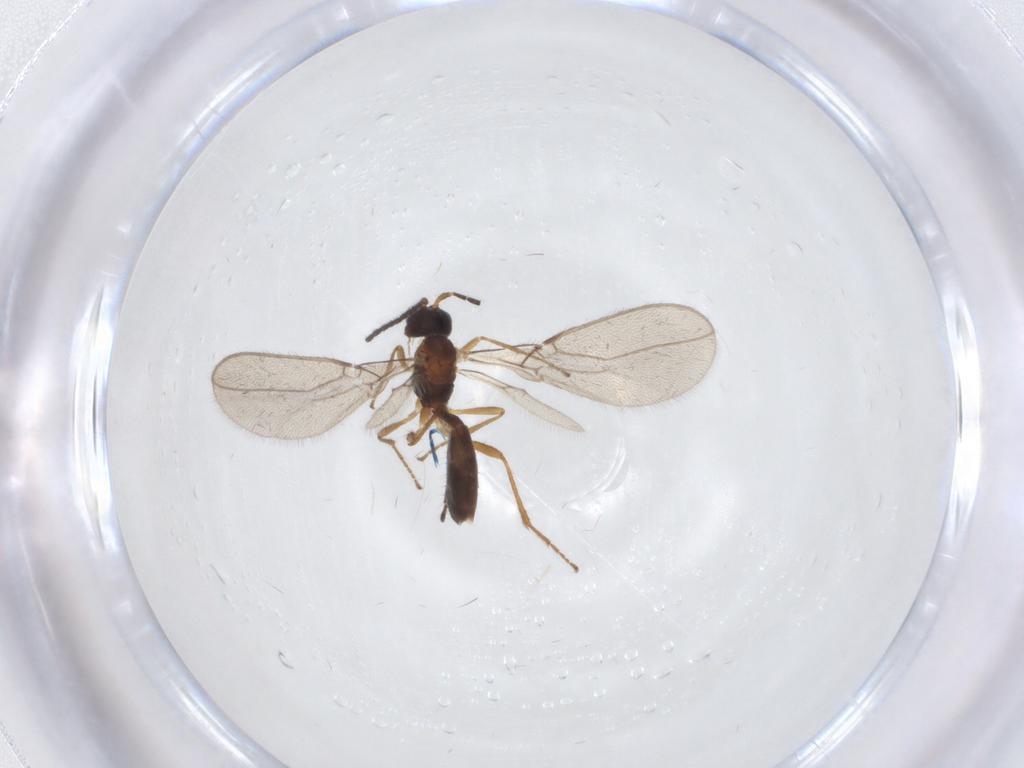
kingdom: Animalia
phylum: Arthropoda
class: Insecta
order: Hymenoptera
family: Braconidae
